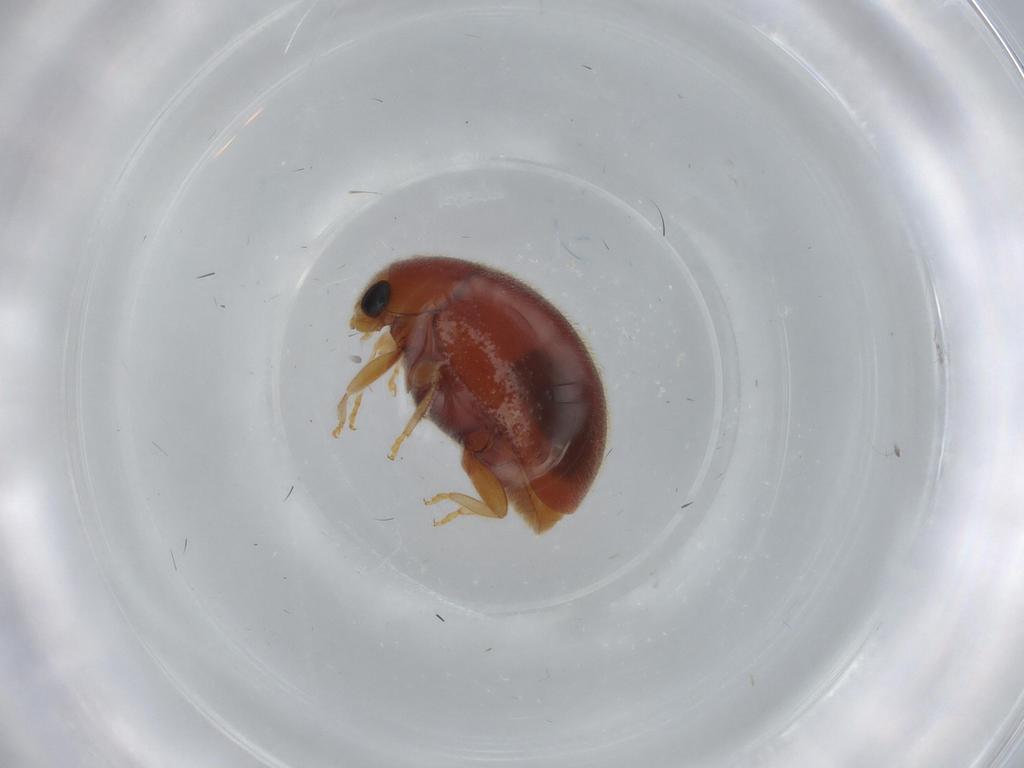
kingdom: Animalia
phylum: Arthropoda
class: Insecta
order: Coleoptera
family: Coccinellidae
